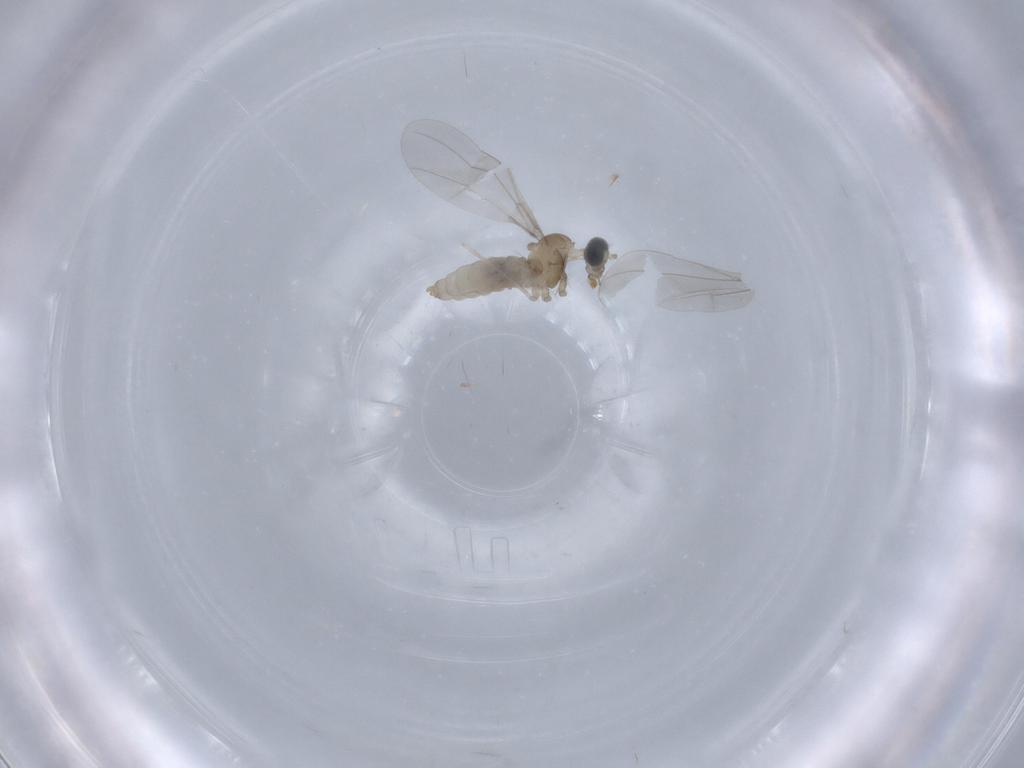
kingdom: Animalia
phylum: Arthropoda
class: Insecta
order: Diptera
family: Cecidomyiidae
